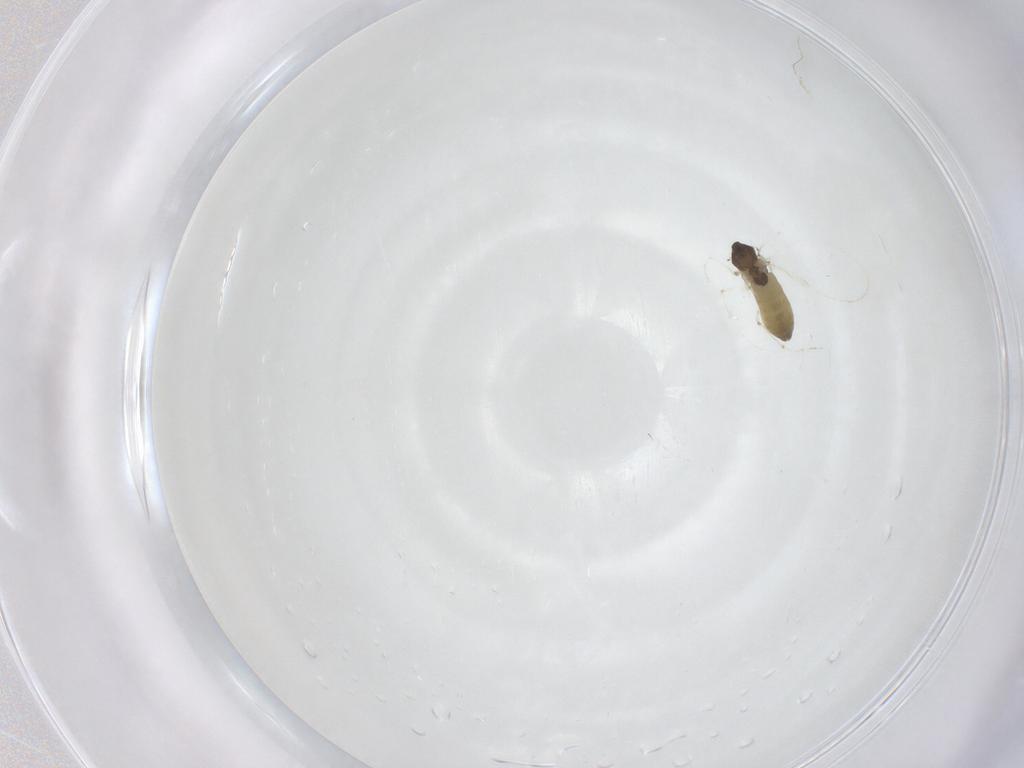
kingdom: Animalia
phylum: Arthropoda
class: Insecta
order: Diptera
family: Chironomidae
